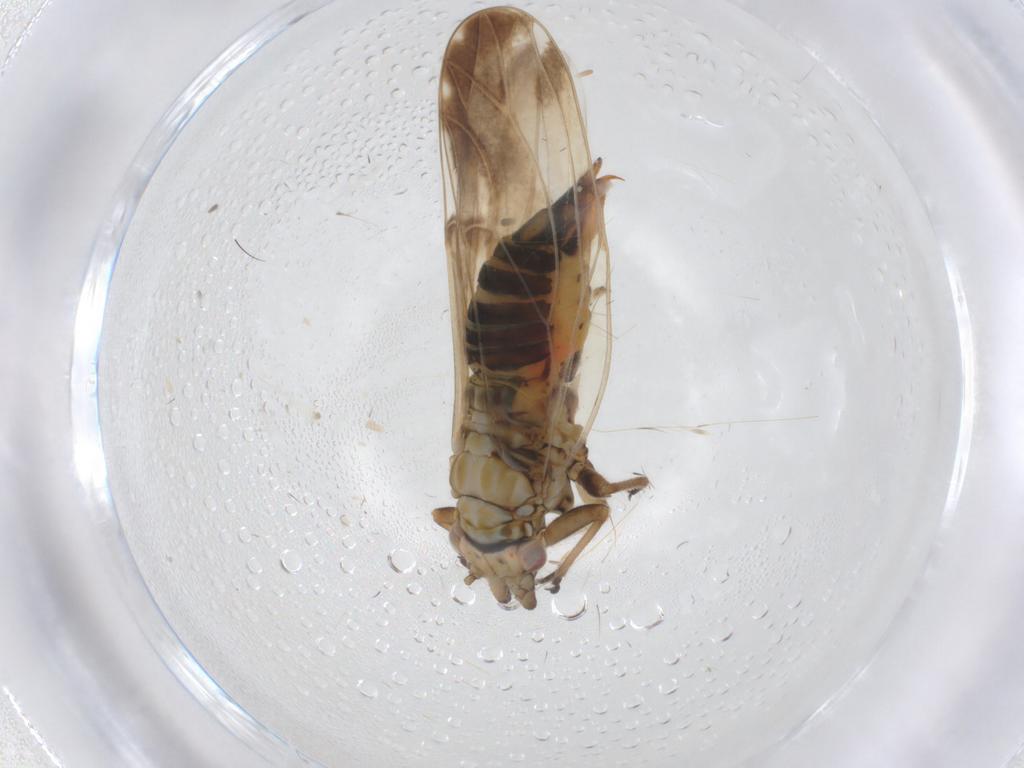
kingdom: Animalia
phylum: Arthropoda
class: Insecta
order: Hemiptera
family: Psyllidae
